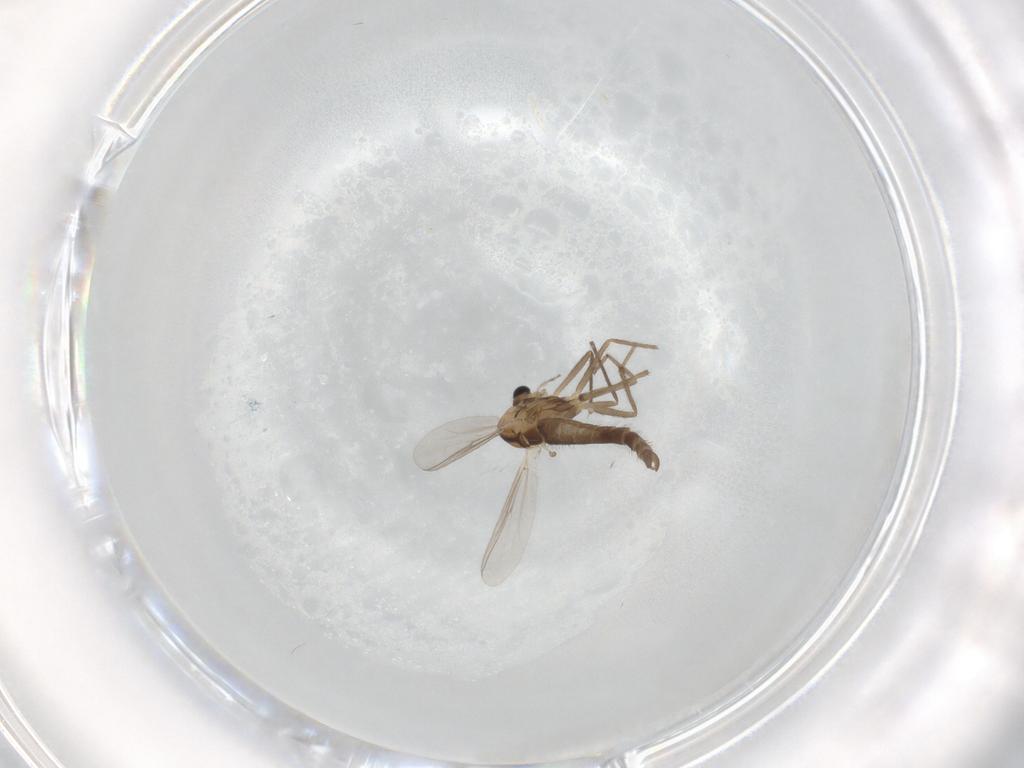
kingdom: Animalia
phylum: Arthropoda
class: Insecta
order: Diptera
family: Chironomidae
